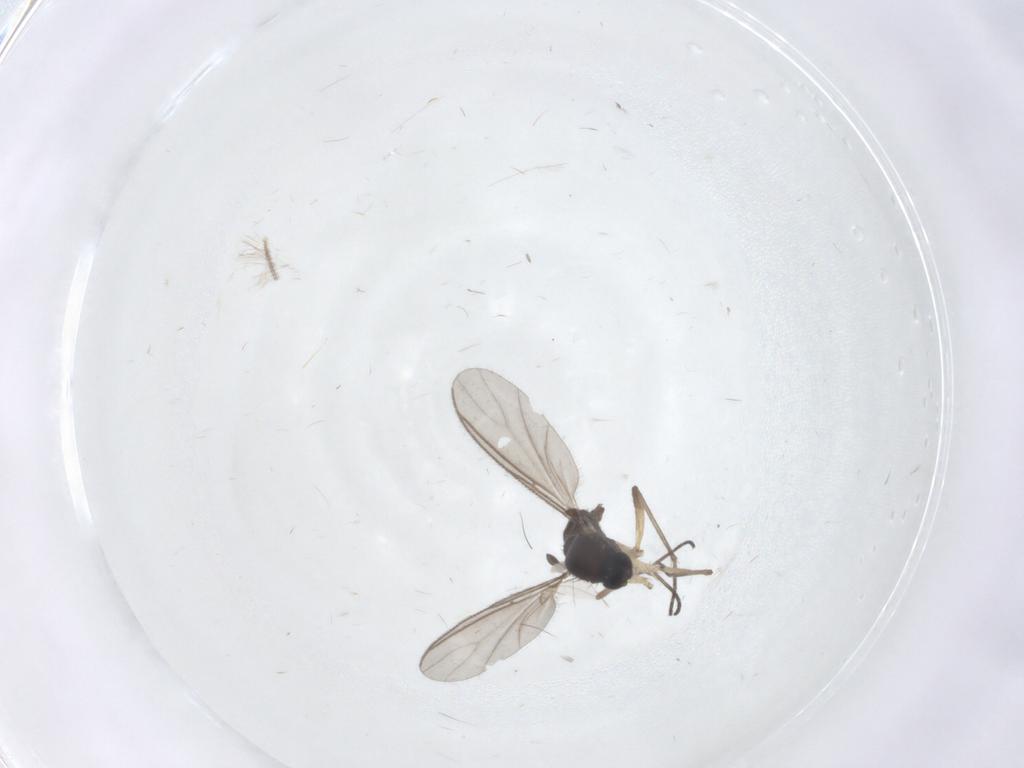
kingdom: Animalia
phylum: Arthropoda
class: Insecta
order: Diptera
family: Sciaridae
